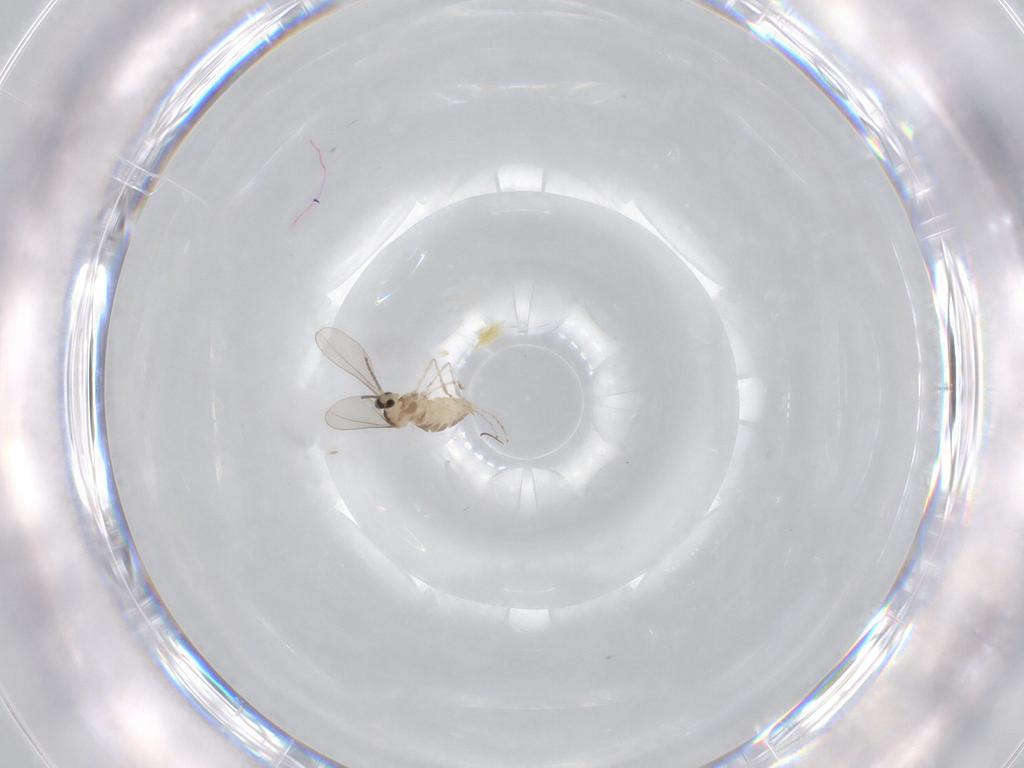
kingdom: Animalia
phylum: Arthropoda
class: Insecta
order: Diptera
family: Cecidomyiidae
